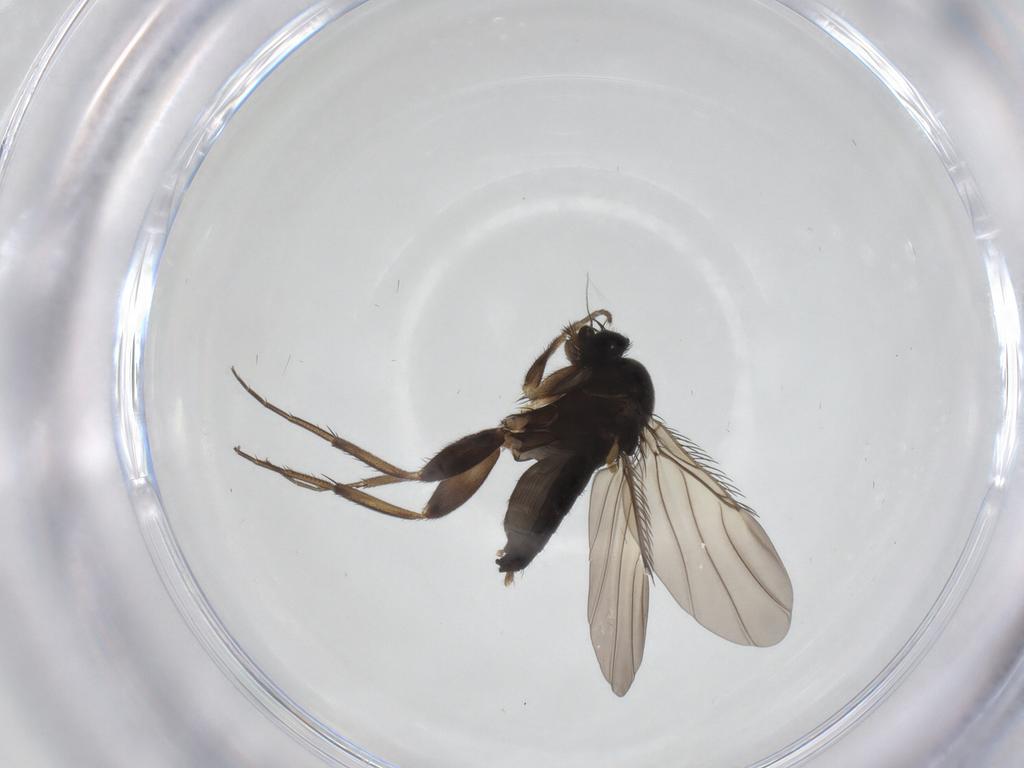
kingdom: Animalia
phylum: Arthropoda
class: Insecta
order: Diptera
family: Phoridae
